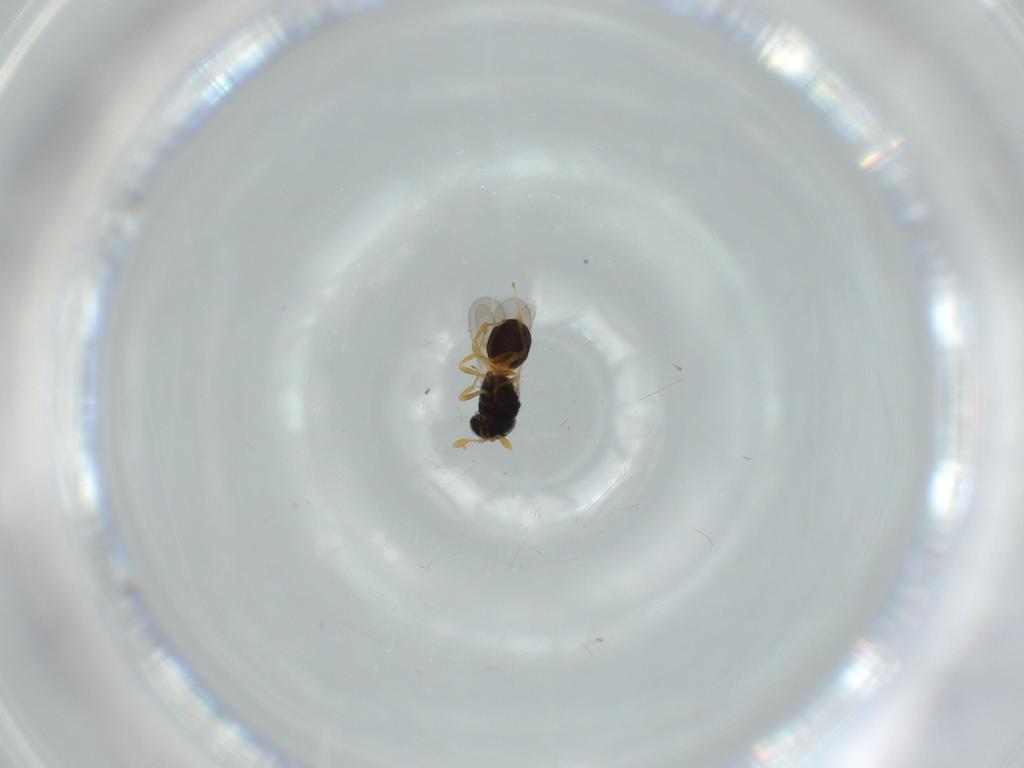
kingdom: Animalia
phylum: Arthropoda
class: Insecta
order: Hymenoptera
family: Scelionidae
